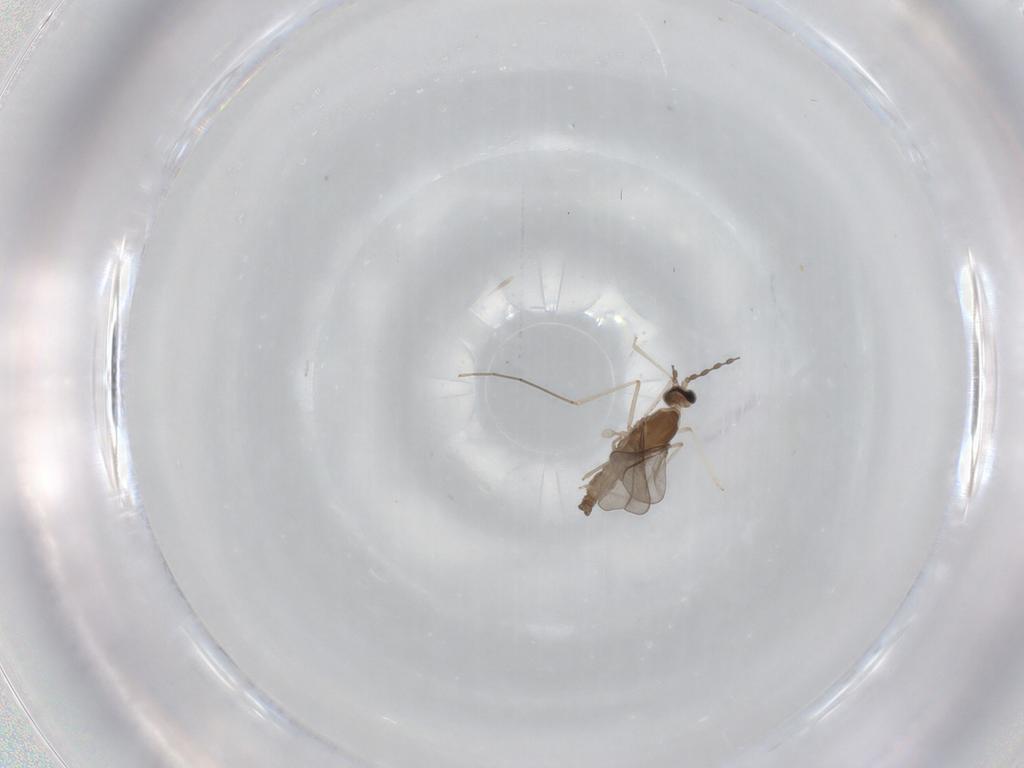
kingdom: Animalia
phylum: Arthropoda
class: Insecta
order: Diptera
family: Cecidomyiidae
